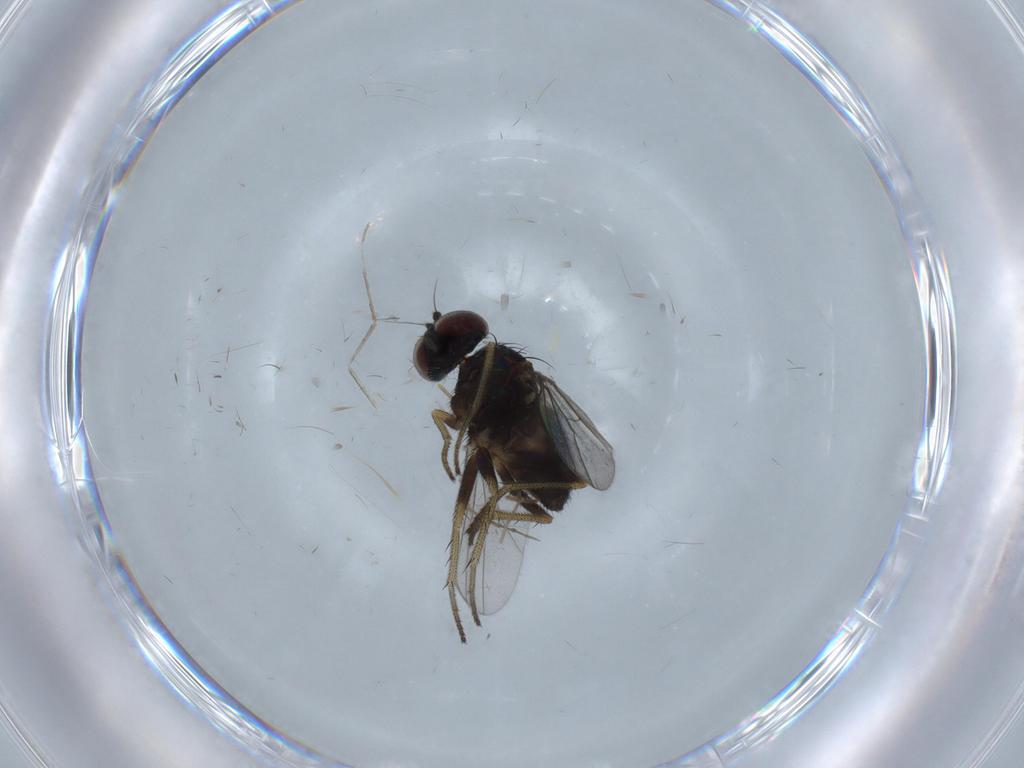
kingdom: Animalia
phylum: Arthropoda
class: Insecta
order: Diptera
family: Chironomidae
